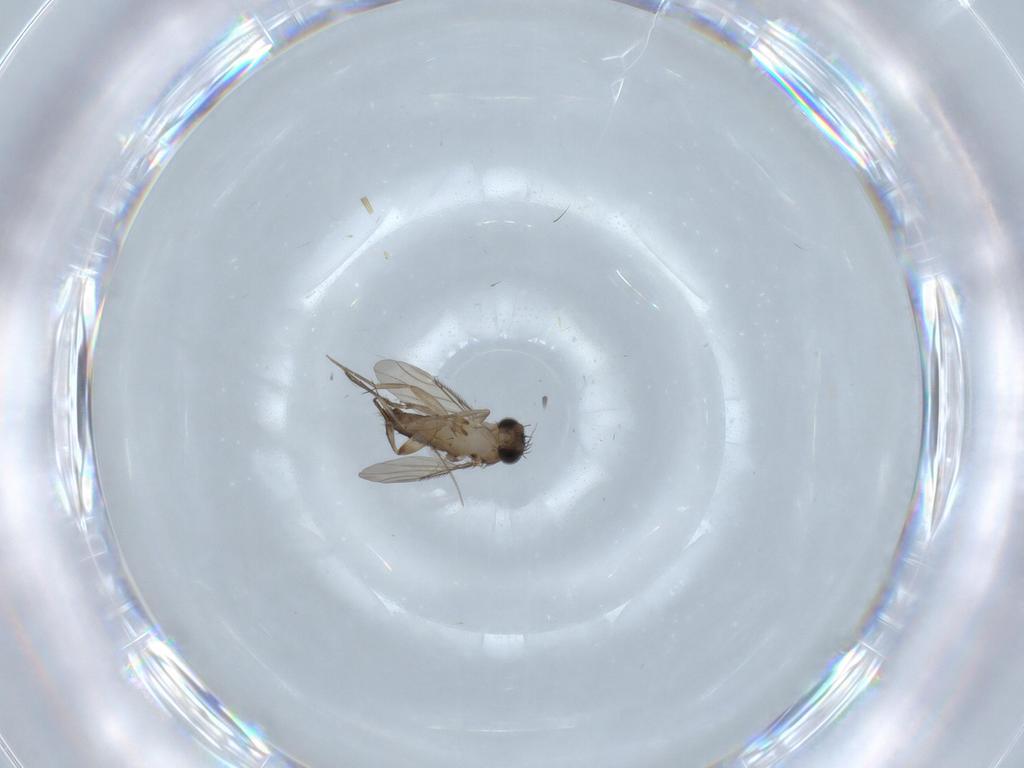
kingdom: Animalia
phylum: Arthropoda
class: Insecta
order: Diptera
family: Phoridae
